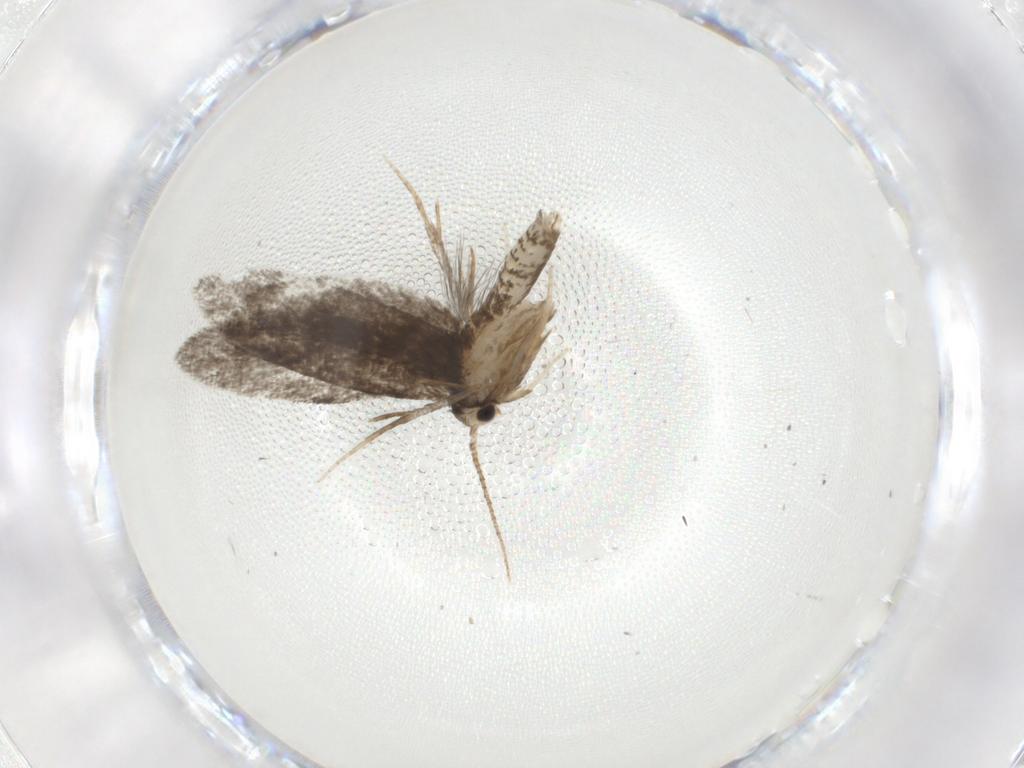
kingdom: Animalia
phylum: Arthropoda
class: Insecta
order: Lepidoptera
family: Psychidae
